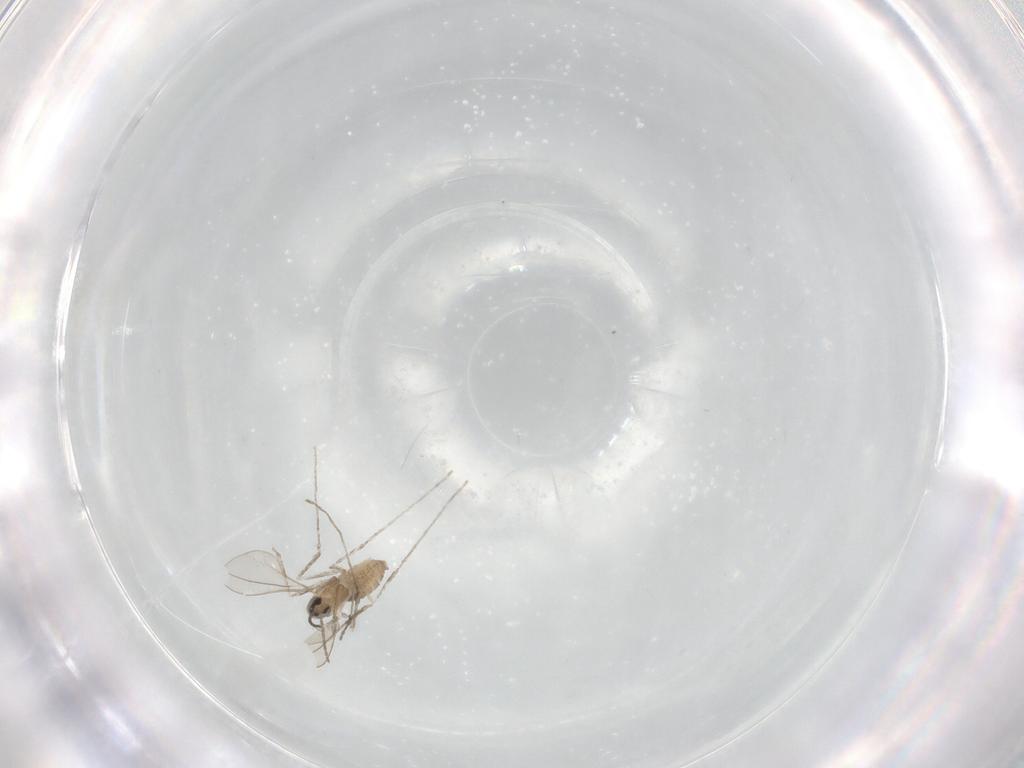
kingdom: Animalia
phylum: Arthropoda
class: Insecta
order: Diptera
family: Cecidomyiidae
